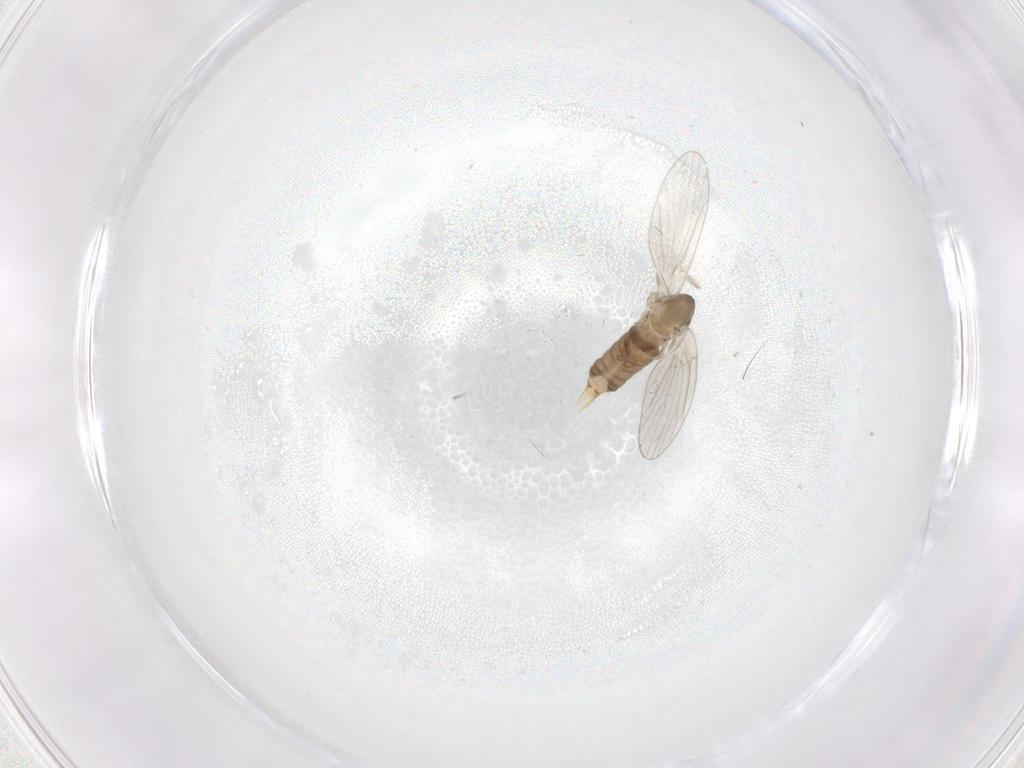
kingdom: Animalia
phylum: Arthropoda
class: Insecta
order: Diptera
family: Psychodidae
